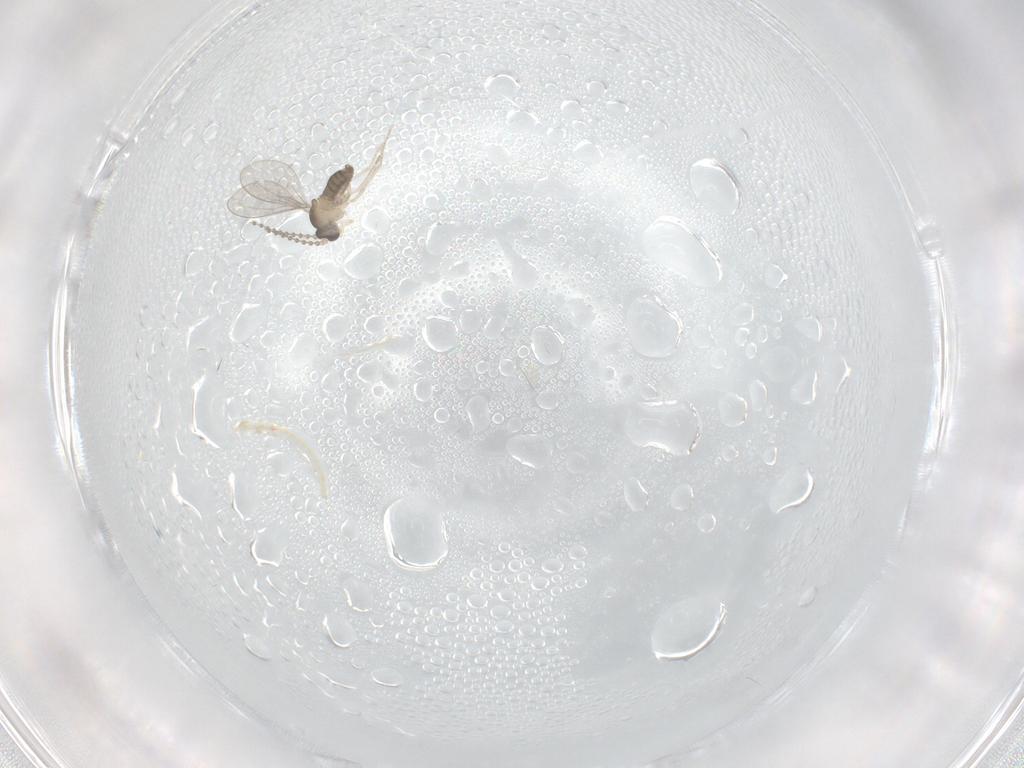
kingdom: Animalia
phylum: Arthropoda
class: Insecta
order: Diptera
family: Cecidomyiidae
